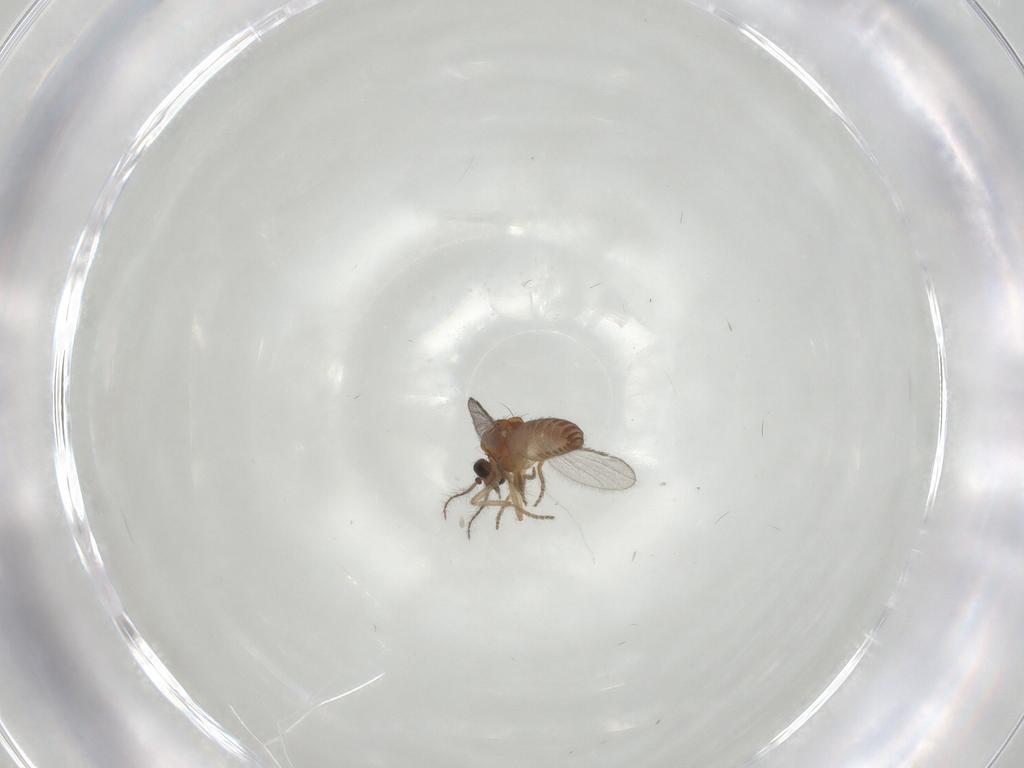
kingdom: Animalia
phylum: Arthropoda
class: Insecta
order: Diptera
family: Ceratopogonidae
